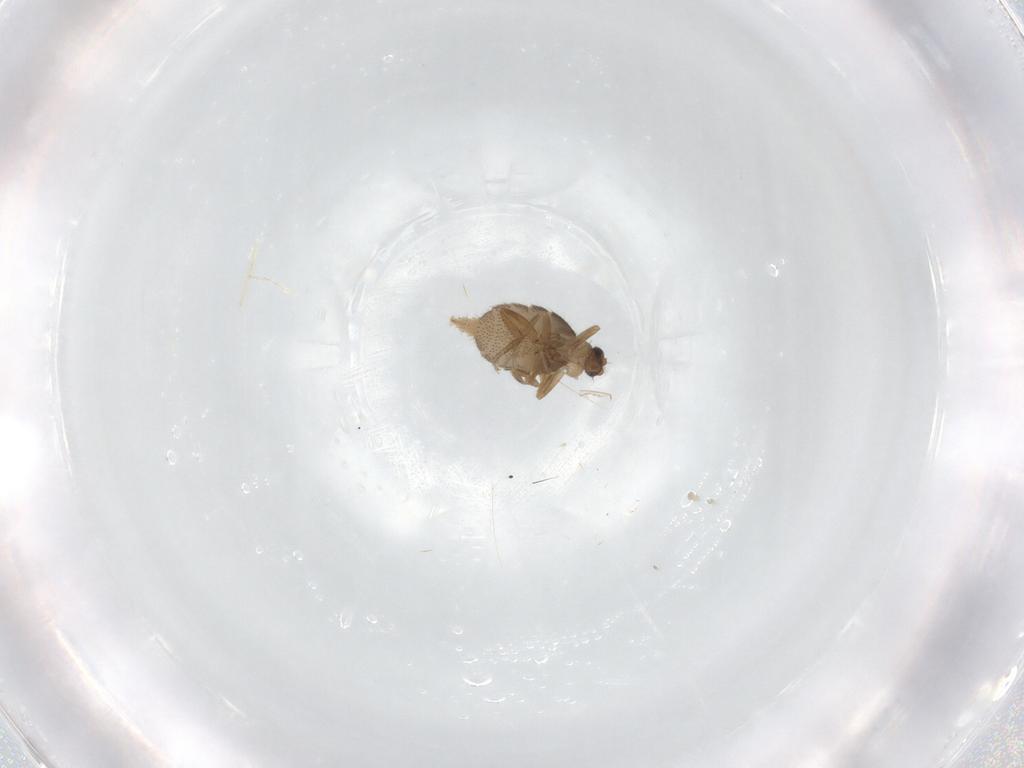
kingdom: Animalia
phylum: Arthropoda
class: Insecta
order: Diptera
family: Phoridae
